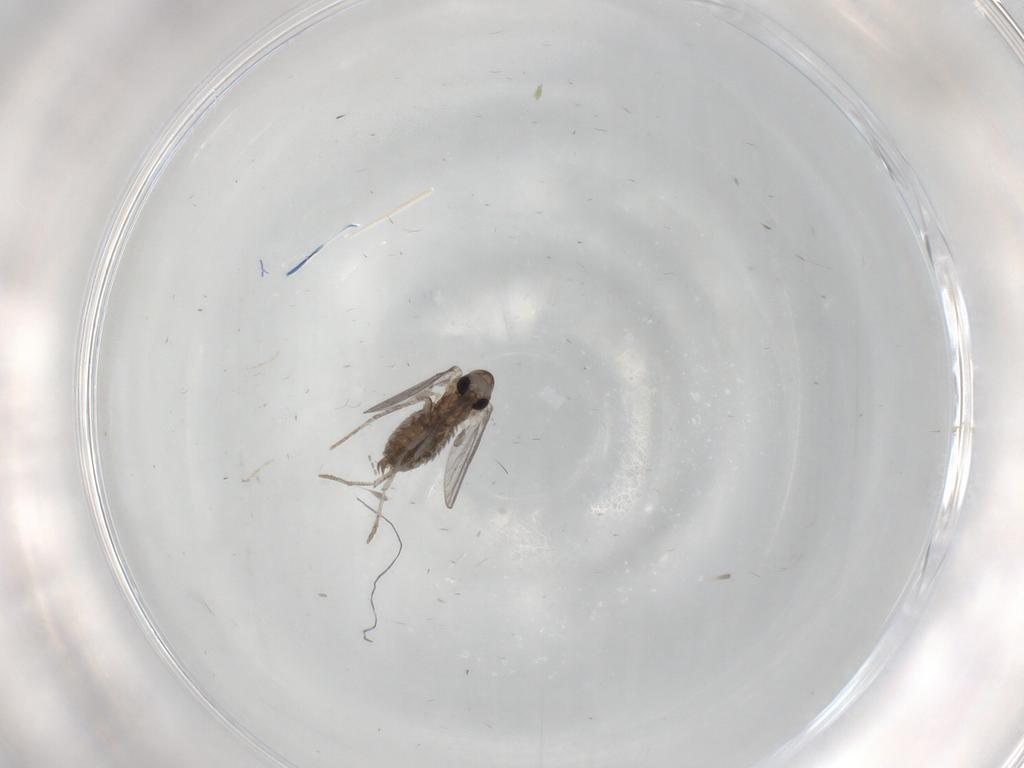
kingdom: Animalia
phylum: Arthropoda
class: Insecta
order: Diptera
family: Psychodidae
